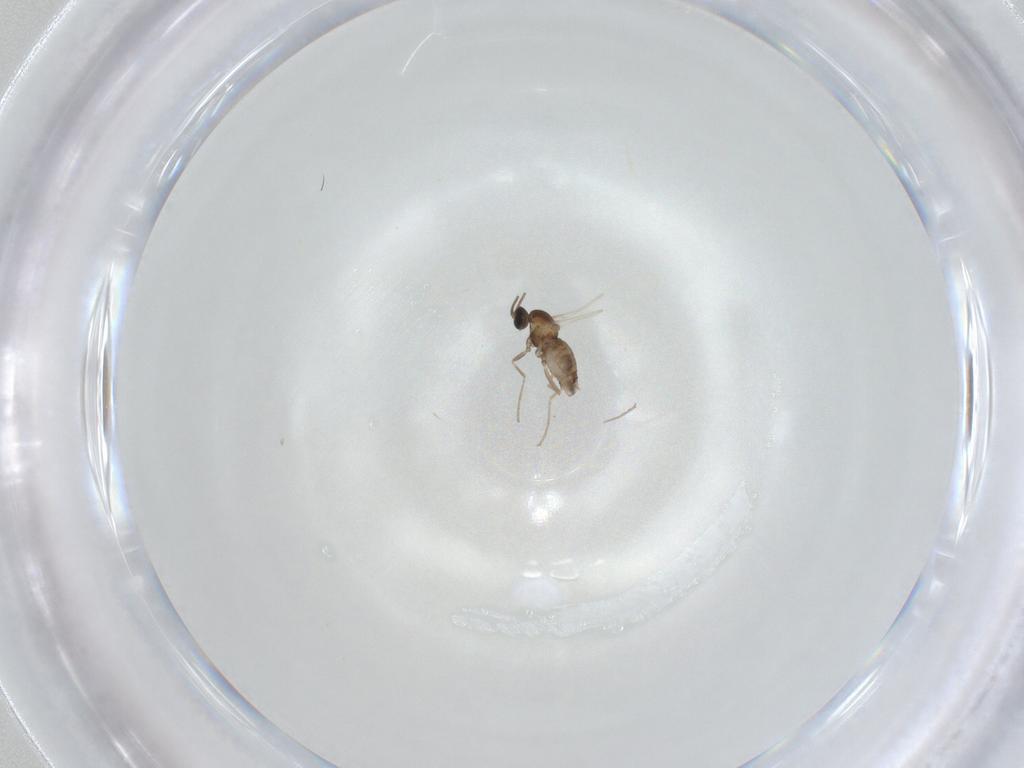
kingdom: Animalia
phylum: Arthropoda
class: Insecta
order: Diptera
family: Cecidomyiidae
